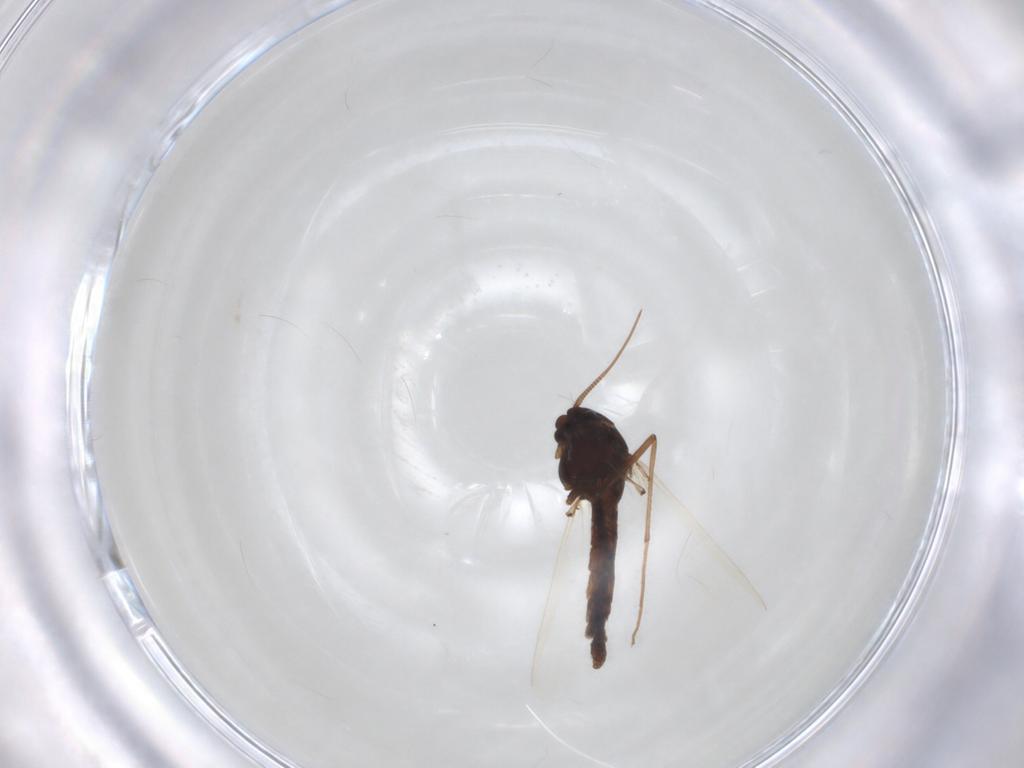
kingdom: Animalia
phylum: Arthropoda
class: Insecta
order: Diptera
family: Chironomidae
